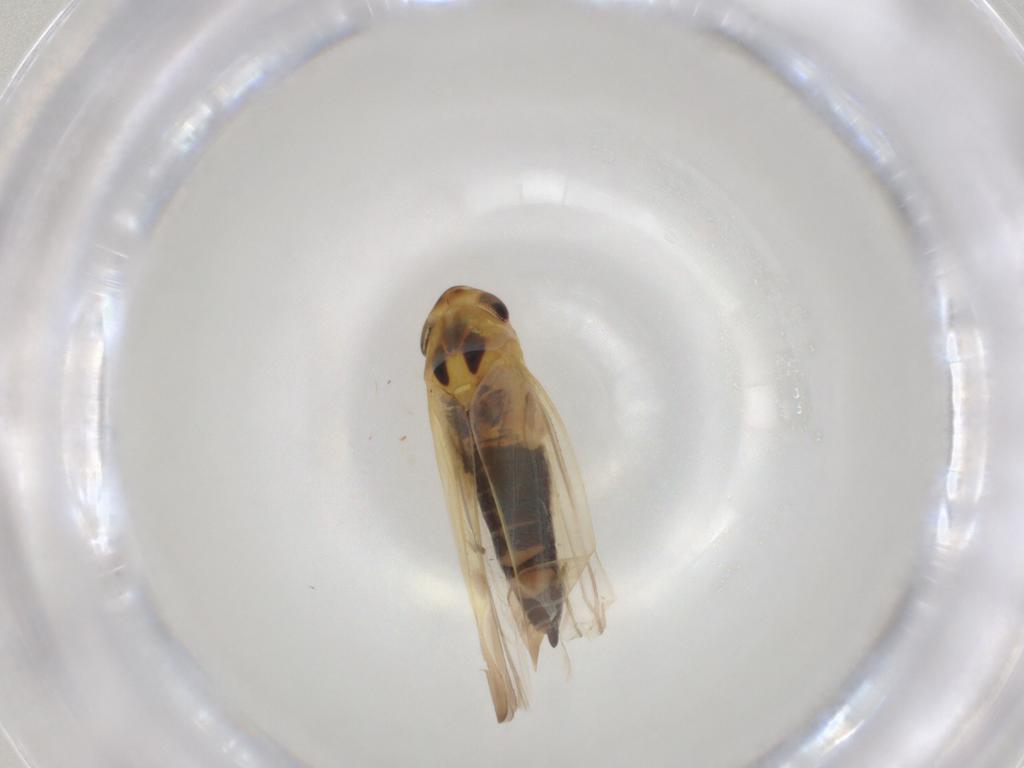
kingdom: Animalia
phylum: Arthropoda
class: Insecta
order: Hemiptera
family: Cicadellidae
